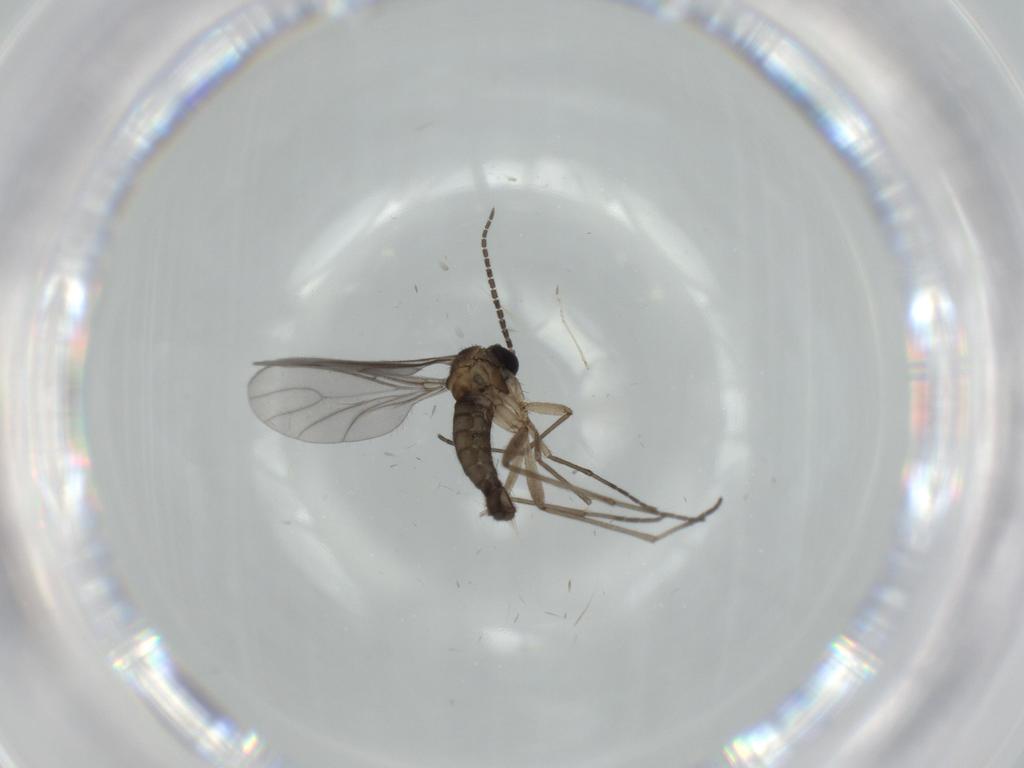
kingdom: Animalia
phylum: Arthropoda
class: Insecta
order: Diptera
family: Sciaridae
